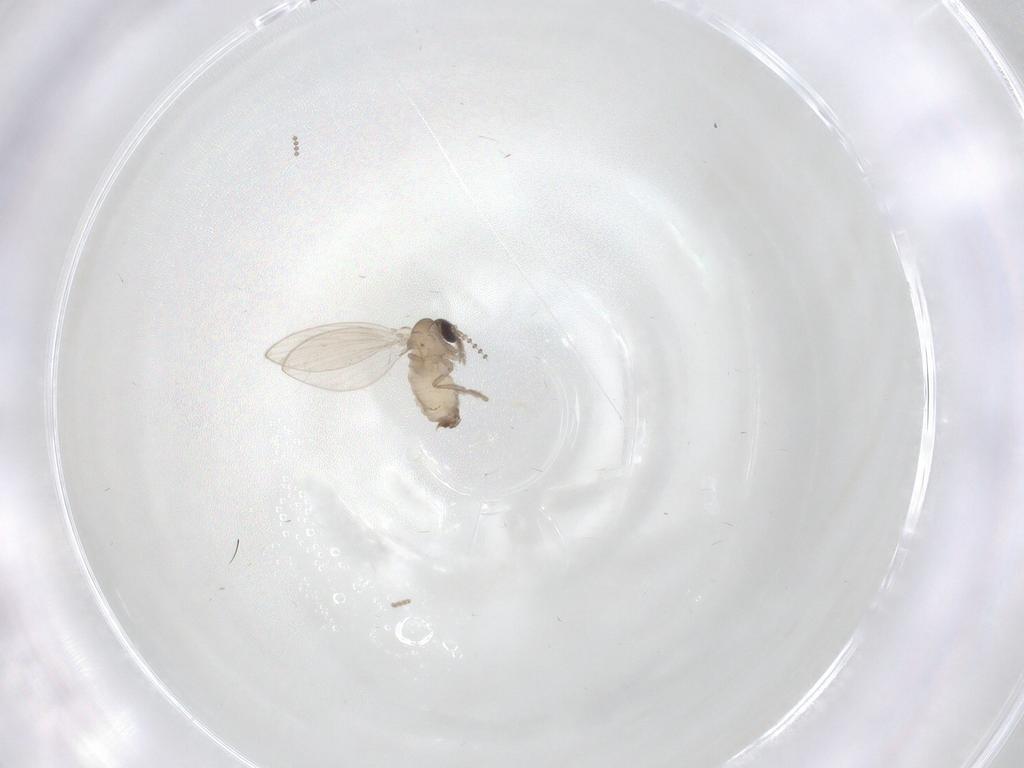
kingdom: Animalia
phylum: Arthropoda
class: Insecta
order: Diptera
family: Psychodidae
